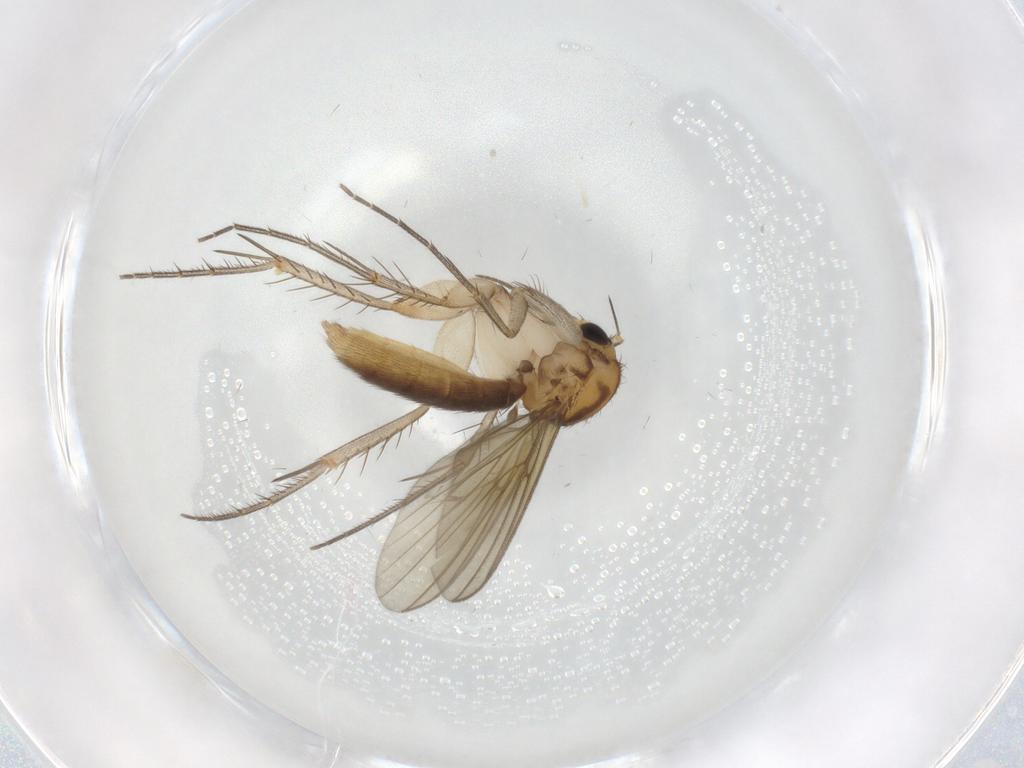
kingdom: Animalia
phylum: Arthropoda
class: Insecta
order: Diptera
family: Mycetophilidae
